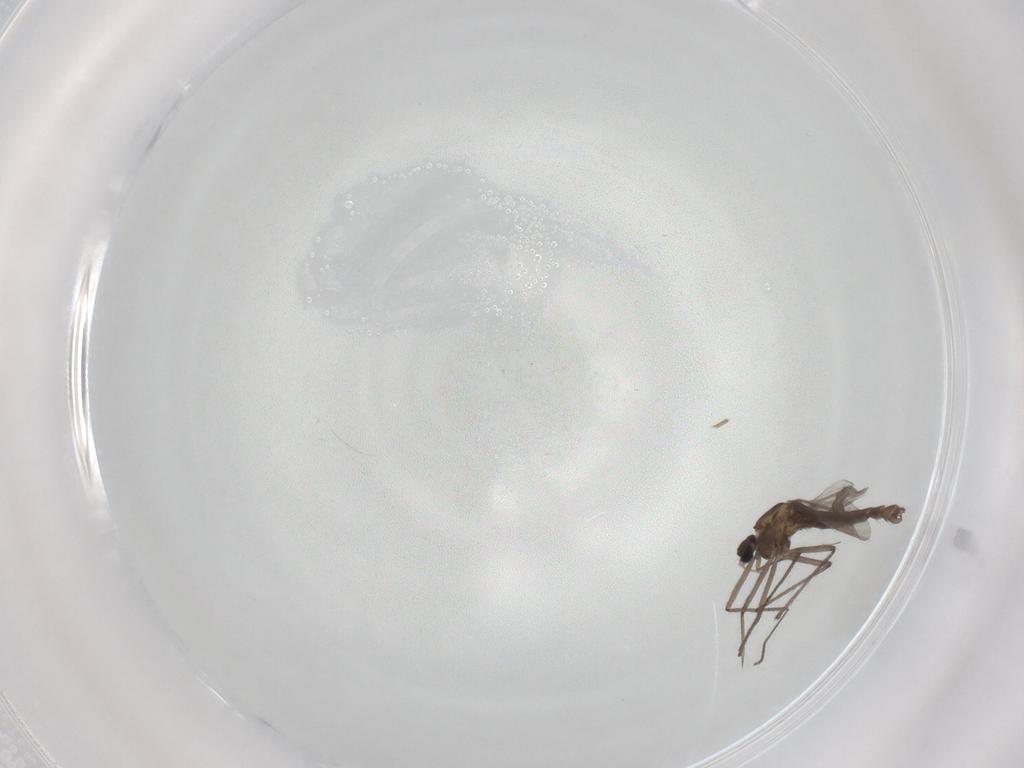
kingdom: Animalia
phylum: Arthropoda
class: Insecta
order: Diptera
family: Chironomidae
